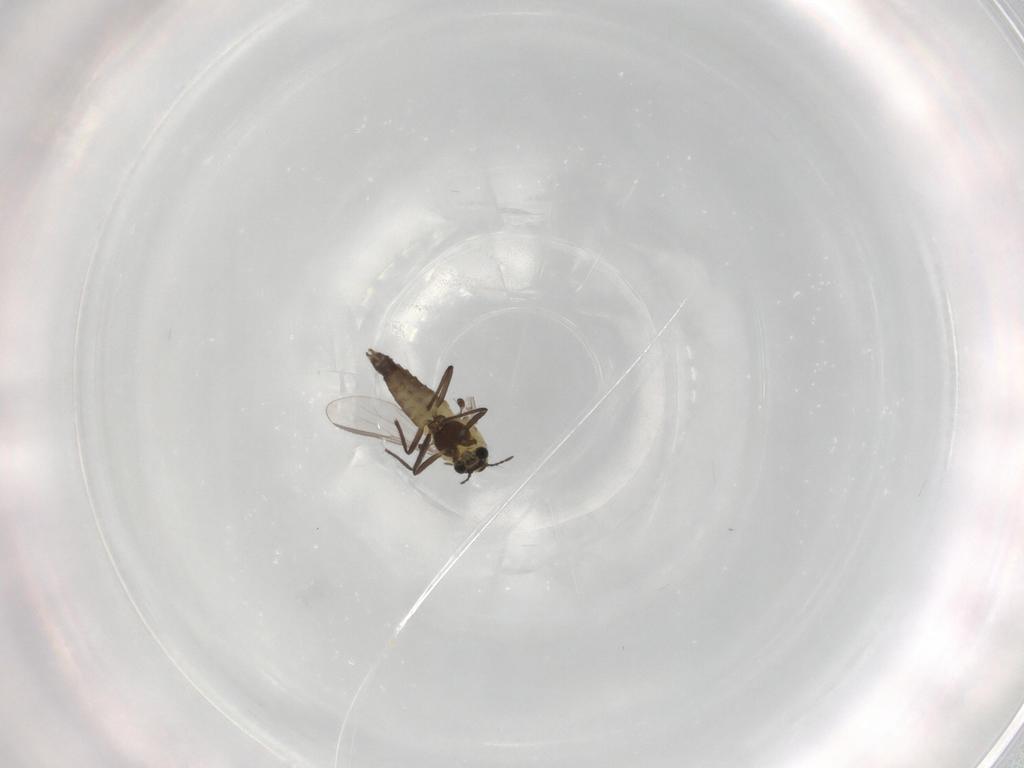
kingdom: Animalia
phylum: Arthropoda
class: Insecta
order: Diptera
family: Chironomidae
